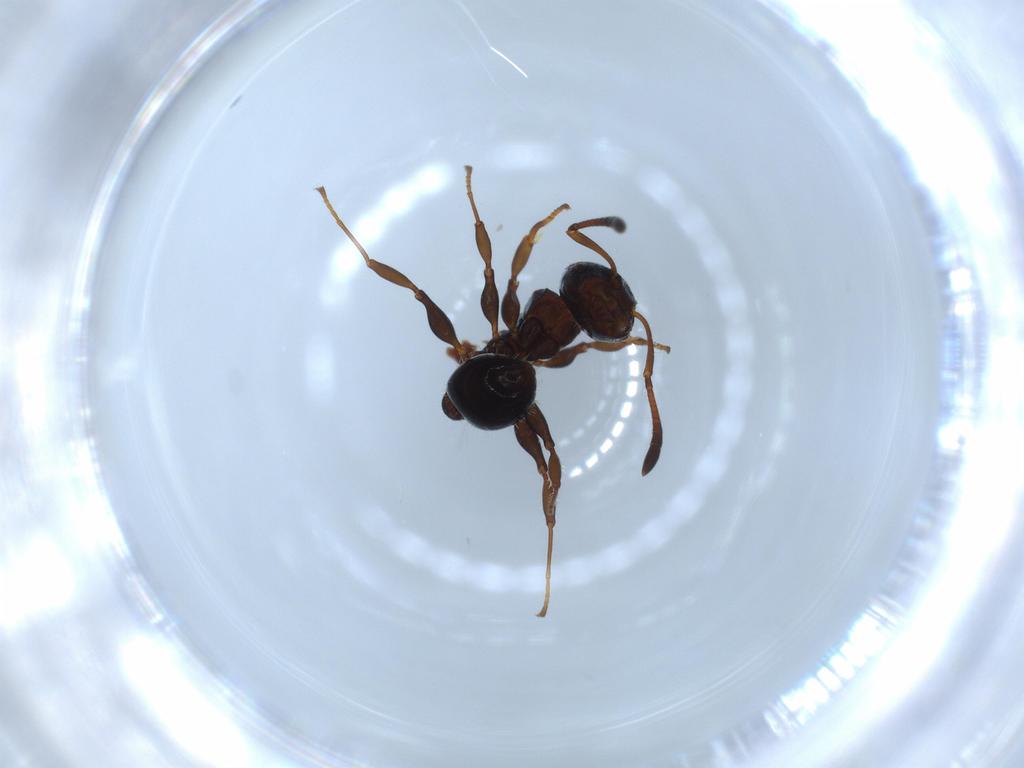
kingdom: Animalia
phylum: Arthropoda
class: Insecta
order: Hymenoptera
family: Formicidae
